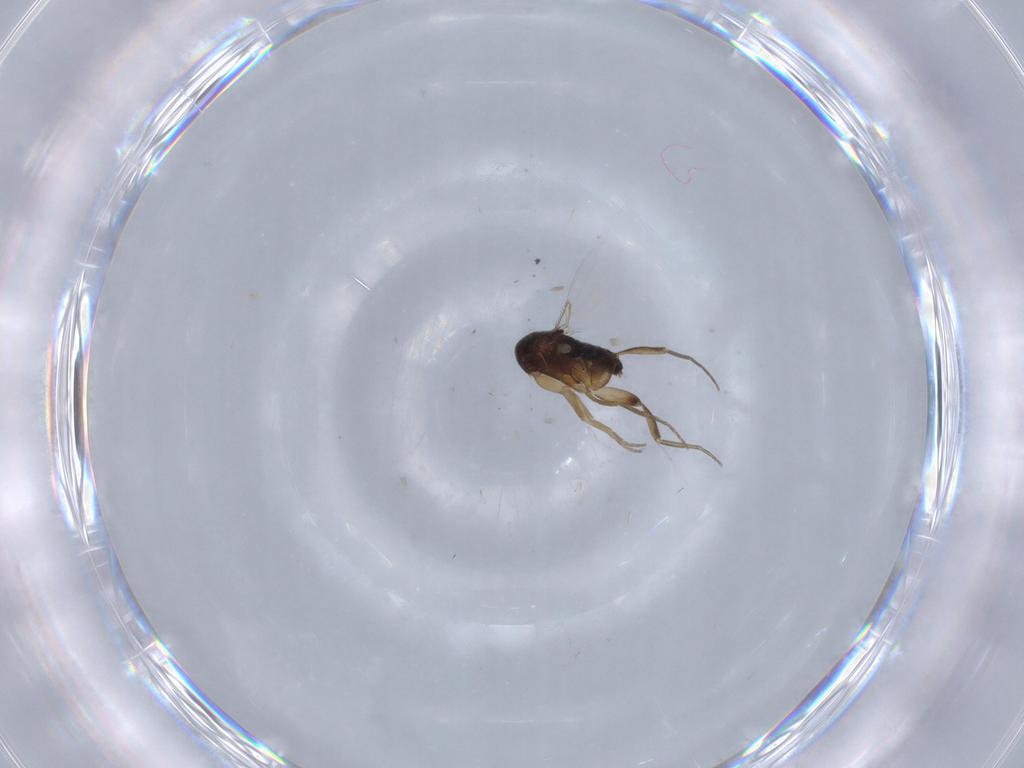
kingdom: Animalia
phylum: Arthropoda
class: Insecta
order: Diptera
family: Phoridae
